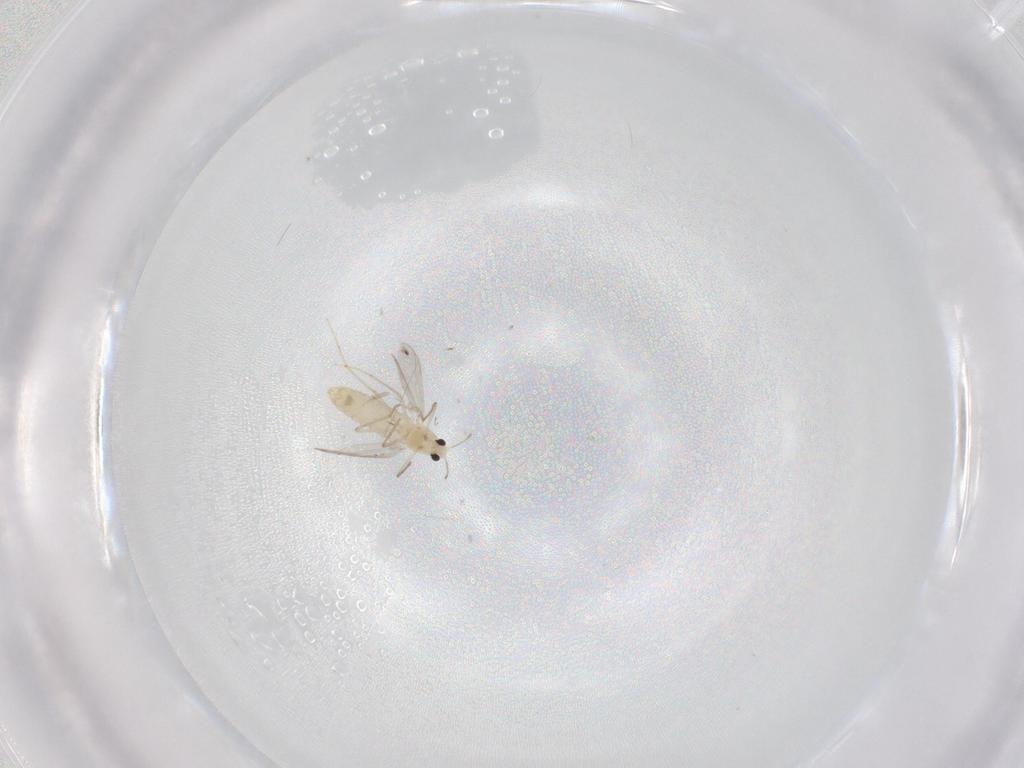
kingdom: Animalia
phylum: Arthropoda
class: Insecta
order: Diptera
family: Chironomidae
